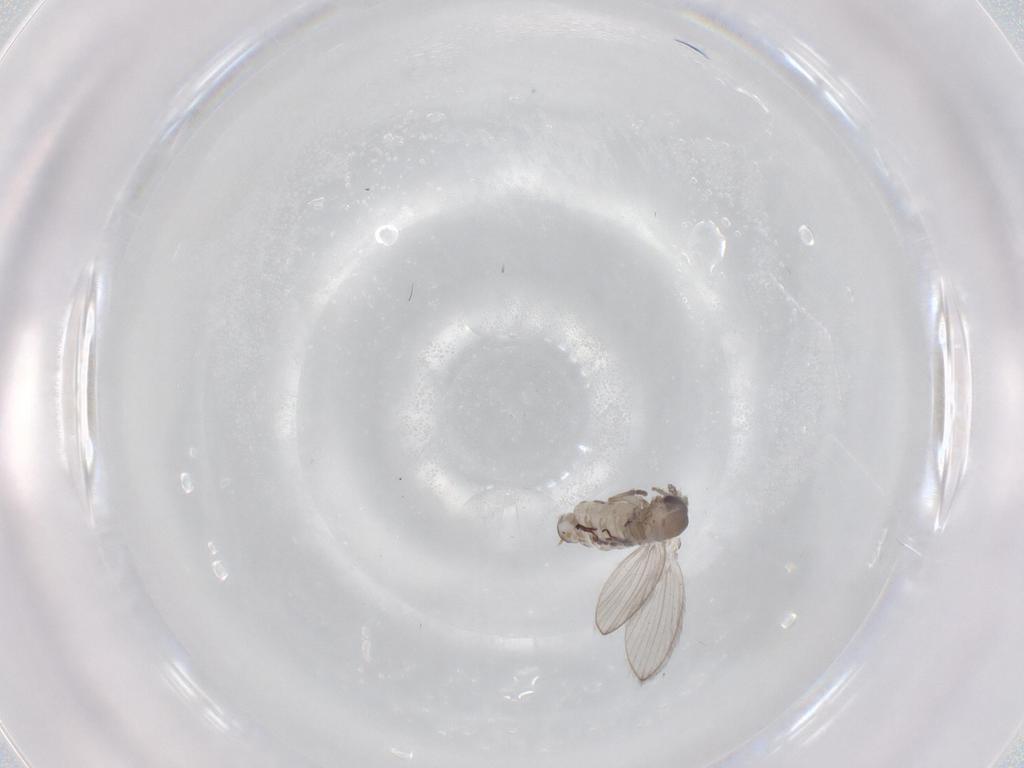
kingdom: Animalia
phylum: Arthropoda
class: Insecta
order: Diptera
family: Psychodidae
